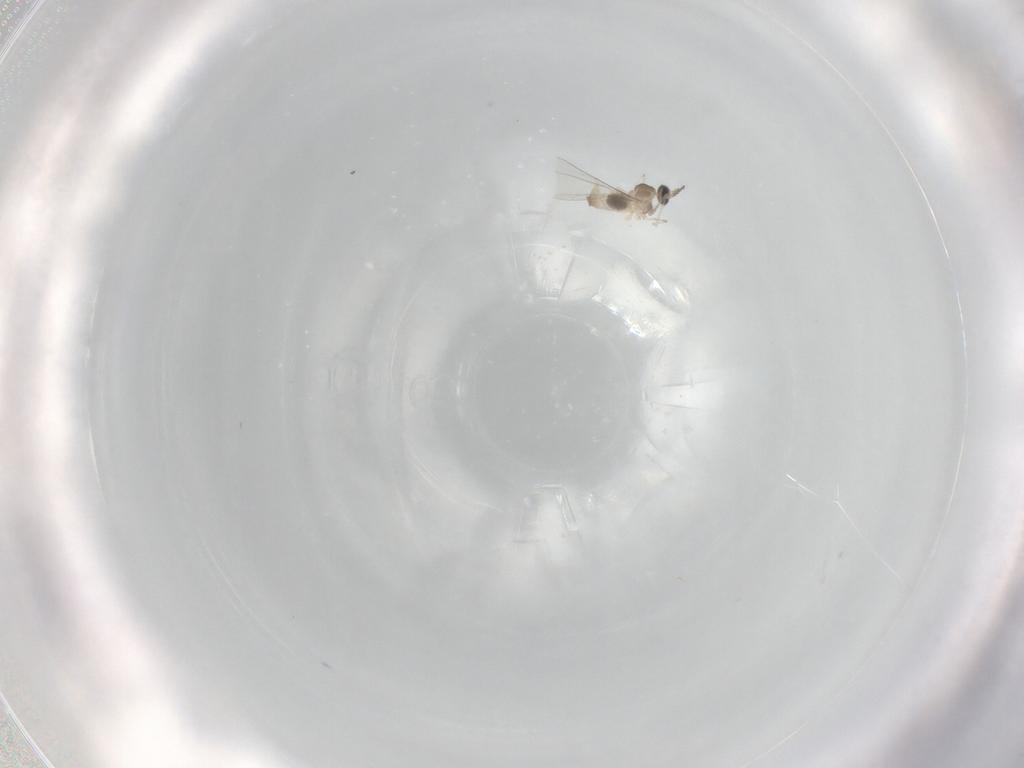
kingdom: Animalia
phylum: Arthropoda
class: Insecta
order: Diptera
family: Cecidomyiidae
